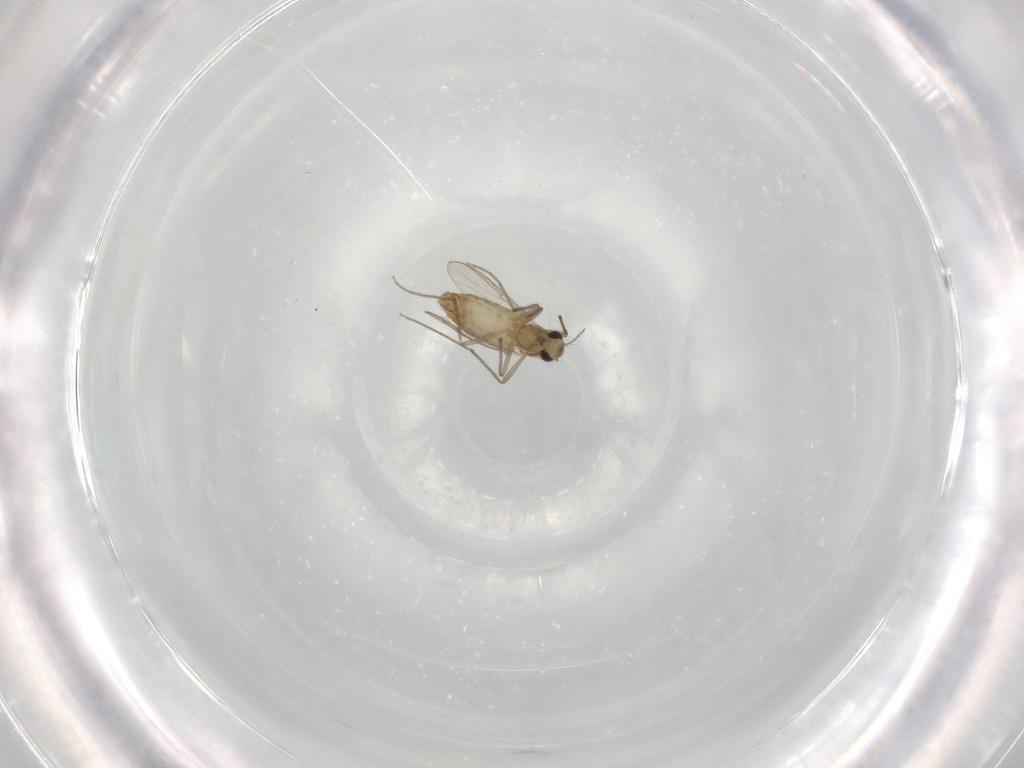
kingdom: Animalia
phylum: Arthropoda
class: Insecta
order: Diptera
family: Chironomidae
